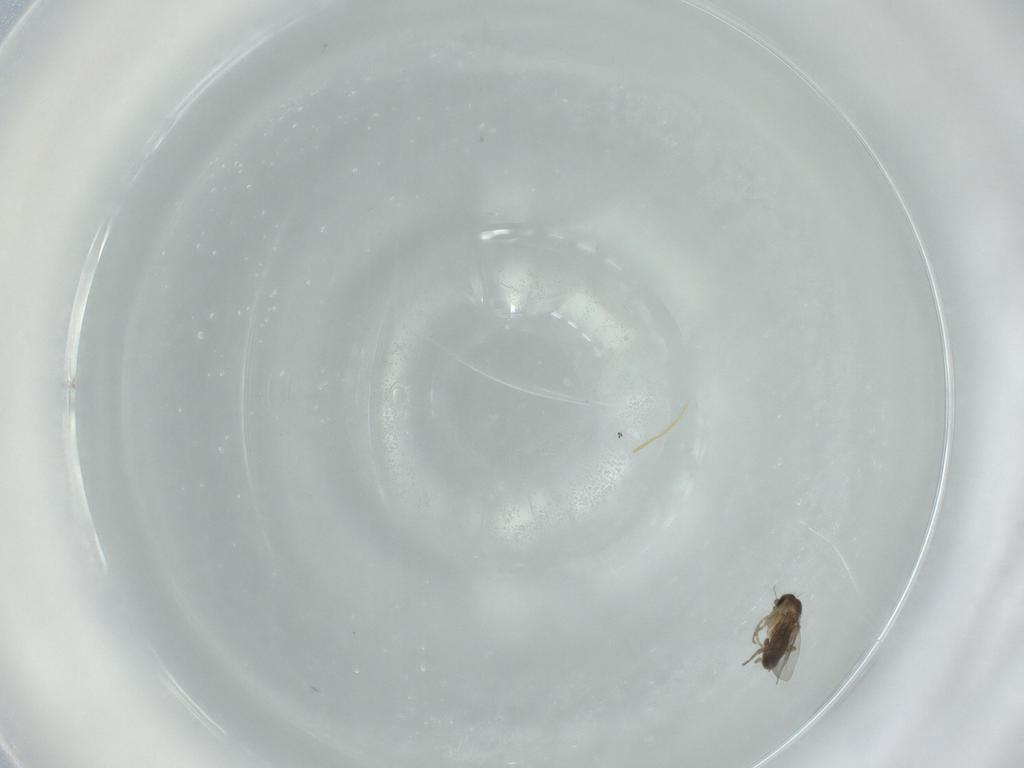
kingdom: Animalia
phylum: Arthropoda
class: Insecta
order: Diptera
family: Phoridae
